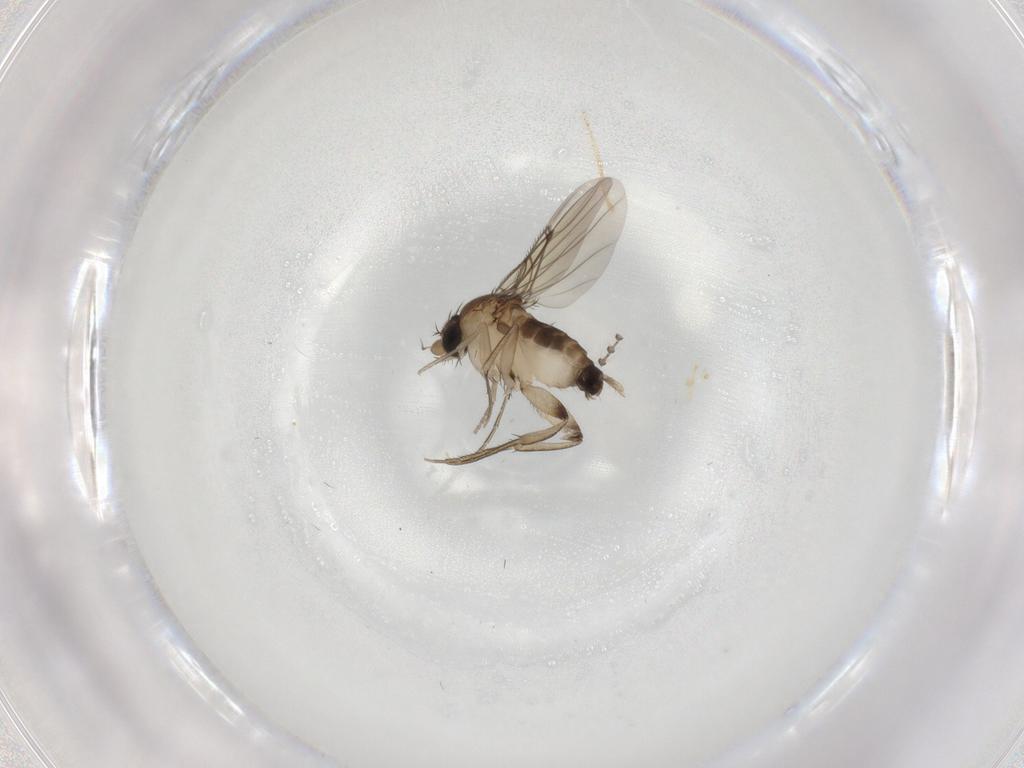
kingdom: Animalia
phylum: Arthropoda
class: Insecta
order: Diptera
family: Phoridae
